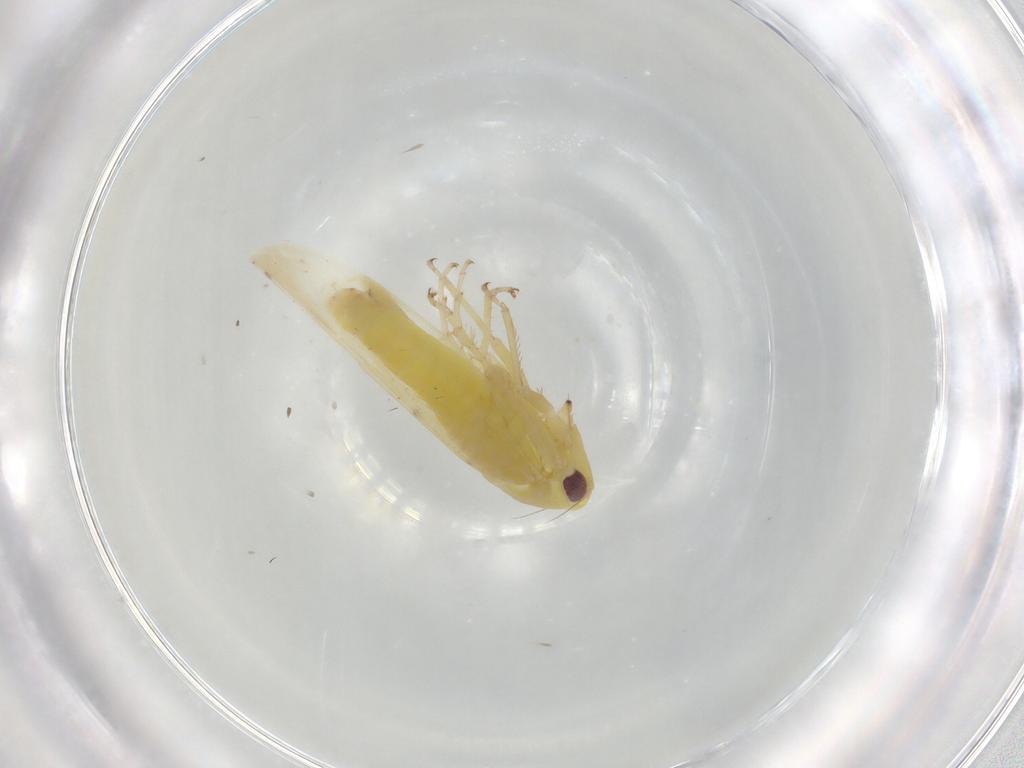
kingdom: Animalia
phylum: Arthropoda
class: Insecta
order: Hemiptera
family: Cicadellidae
